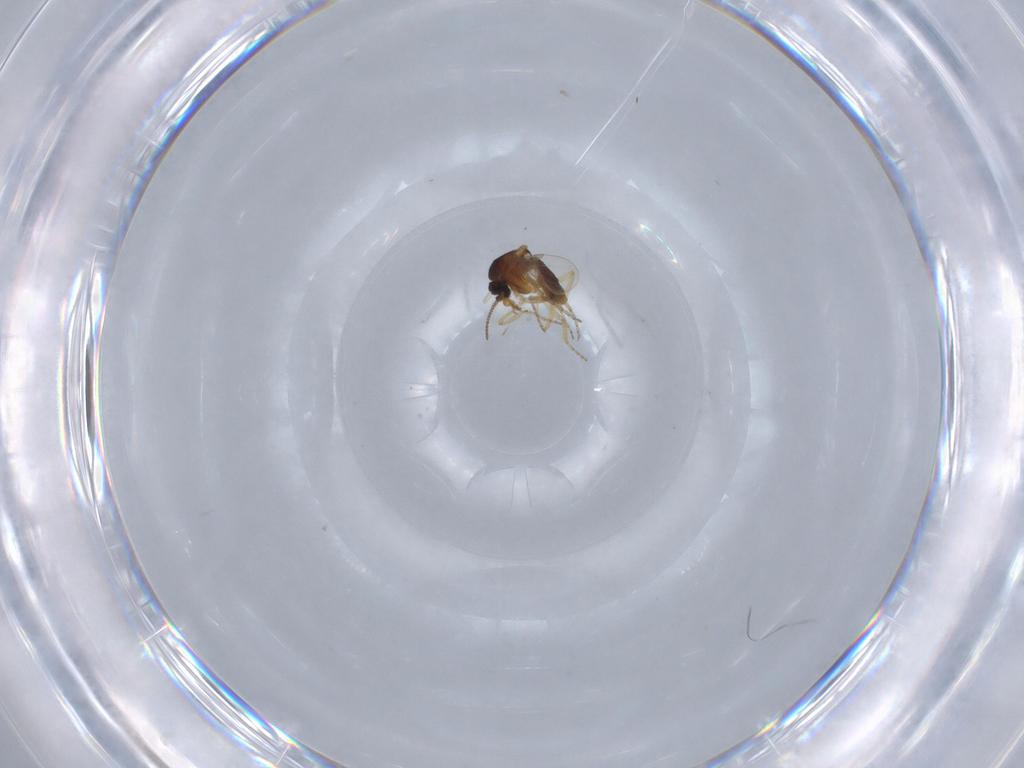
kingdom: Animalia
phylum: Arthropoda
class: Insecta
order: Diptera
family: Ceratopogonidae
